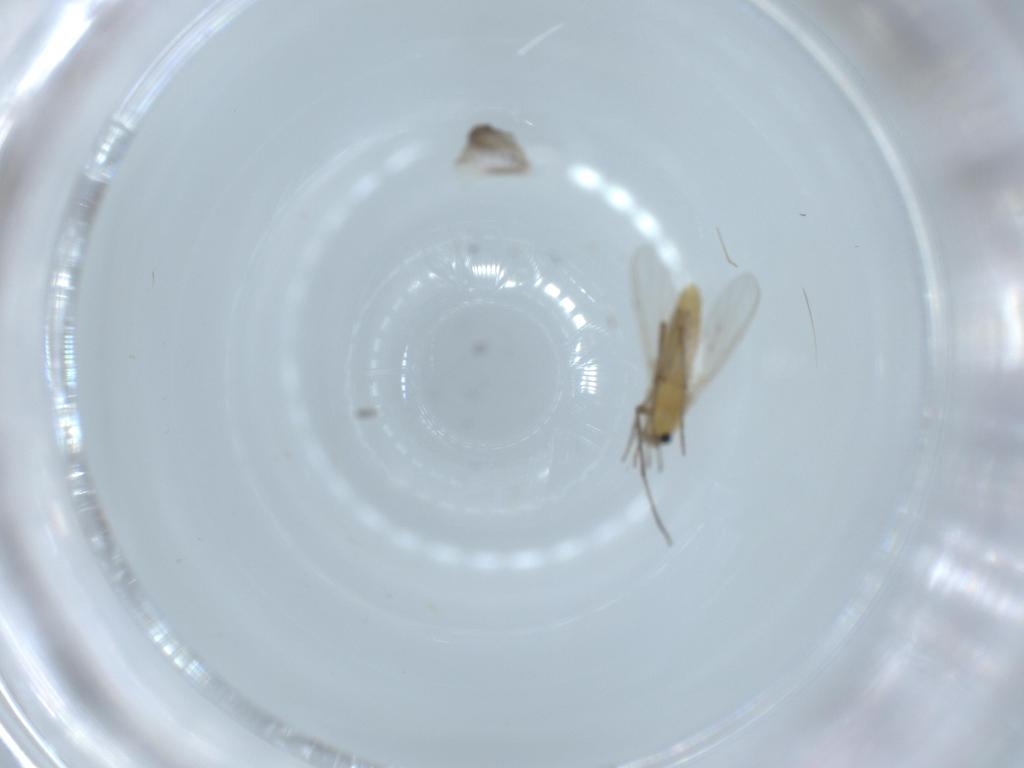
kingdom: Animalia
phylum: Arthropoda
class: Insecta
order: Diptera
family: Chironomidae
